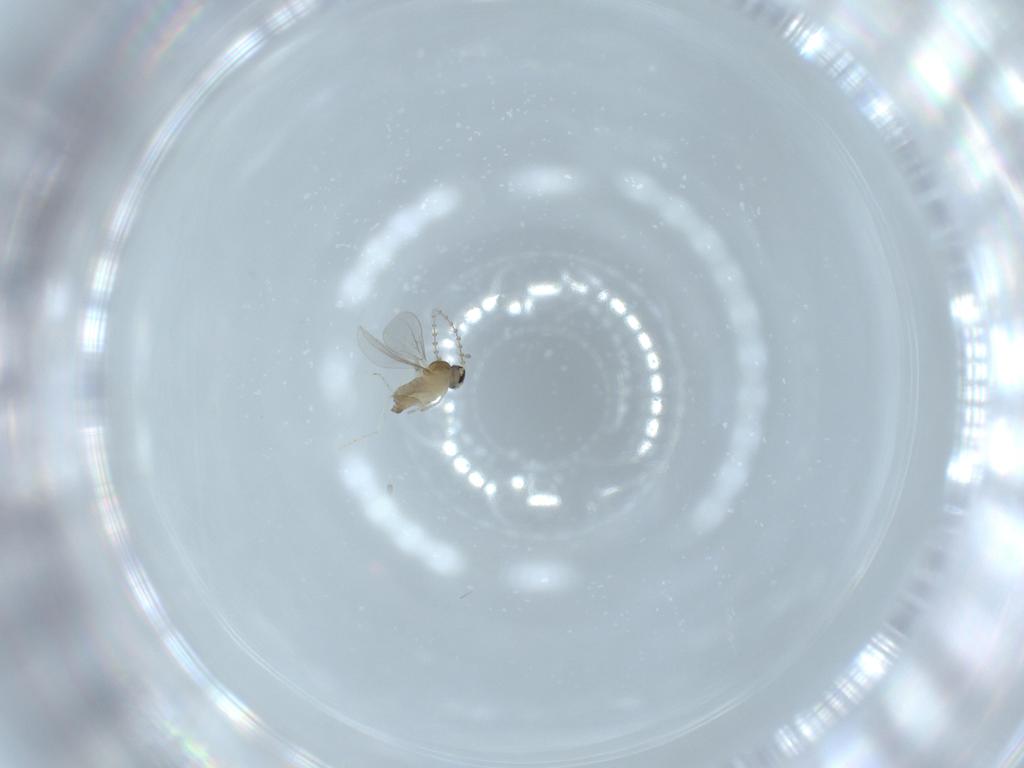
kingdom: Animalia
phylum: Arthropoda
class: Insecta
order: Diptera
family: Cecidomyiidae
